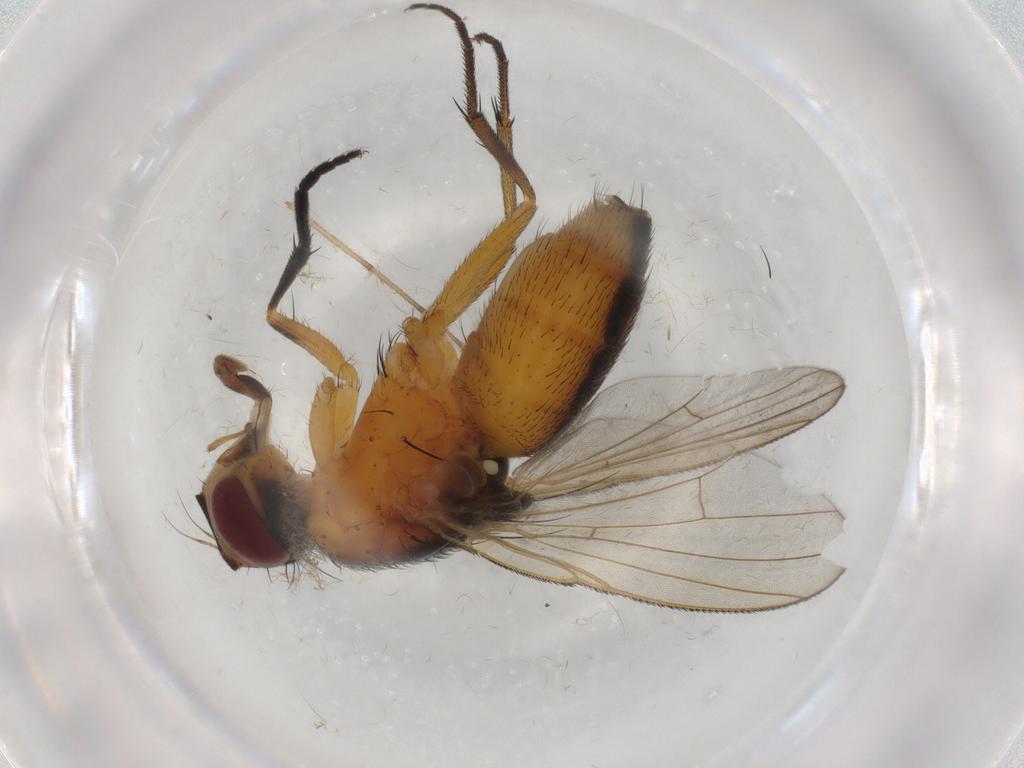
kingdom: Animalia
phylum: Arthropoda
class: Insecta
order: Diptera
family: Muscidae
